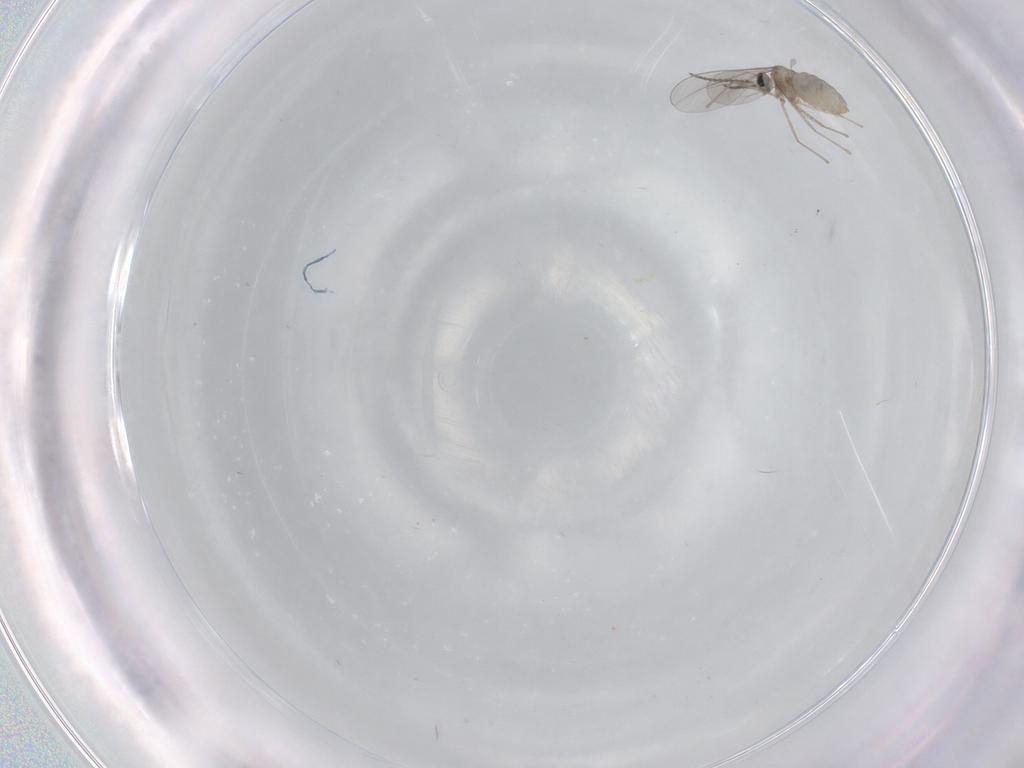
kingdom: Animalia
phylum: Arthropoda
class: Insecta
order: Diptera
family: Cecidomyiidae
